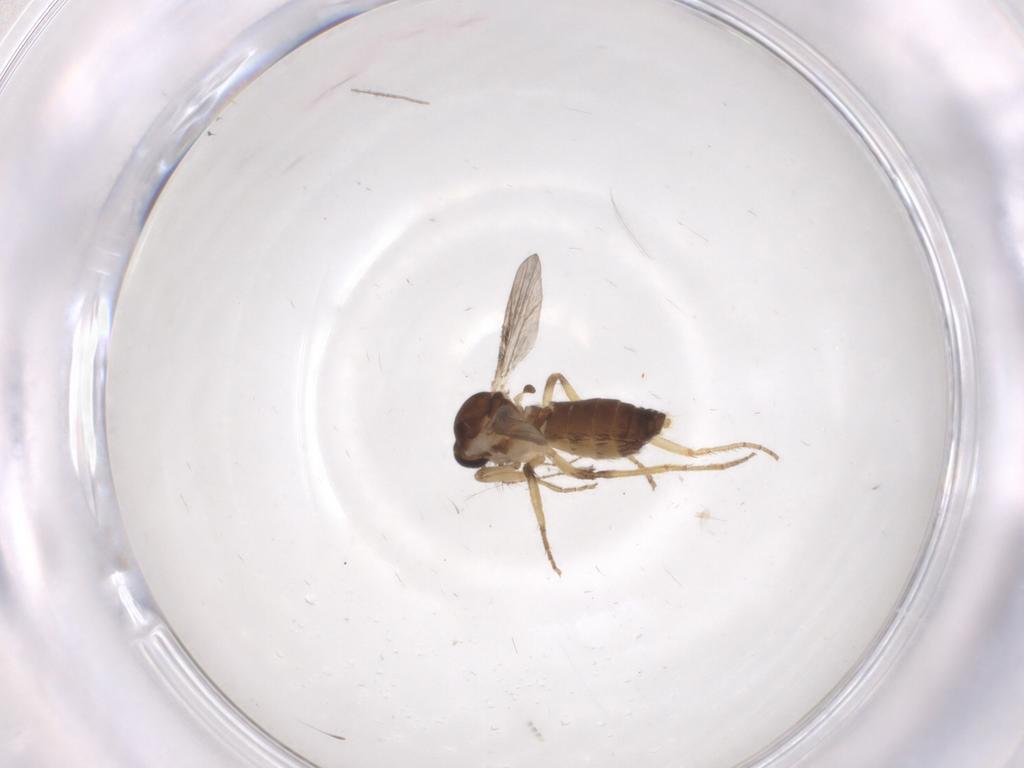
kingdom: Animalia
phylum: Arthropoda
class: Insecta
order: Diptera
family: Ceratopogonidae
